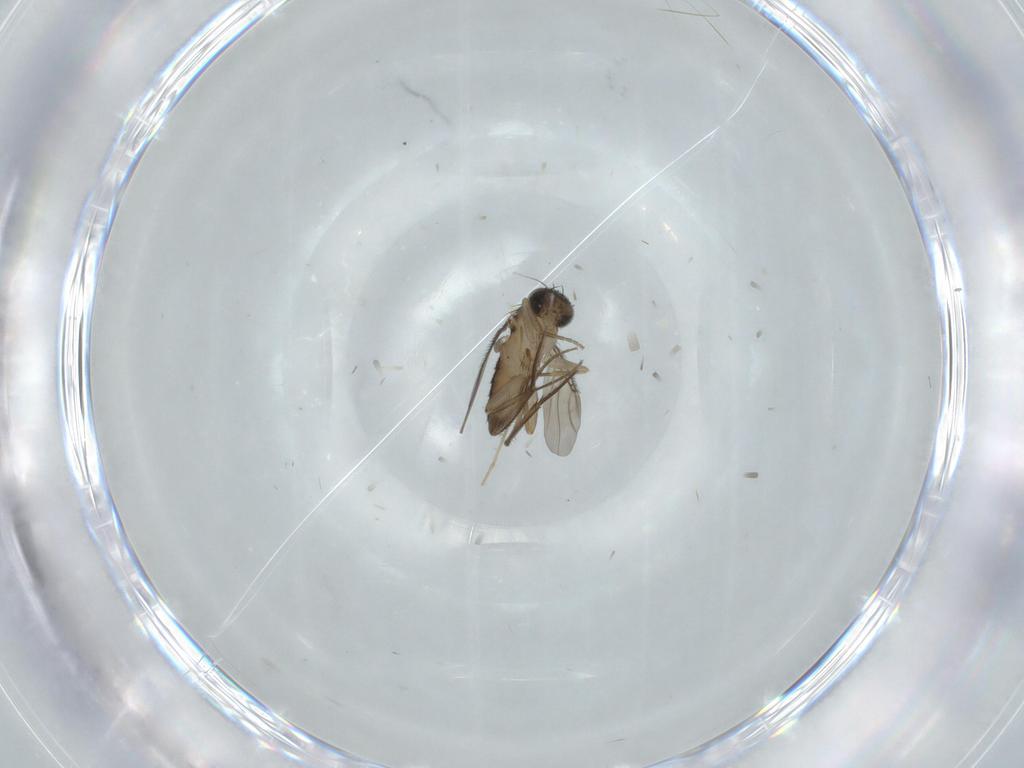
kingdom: Animalia
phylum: Arthropoda
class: Insecta
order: Diptera
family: Phoridae
